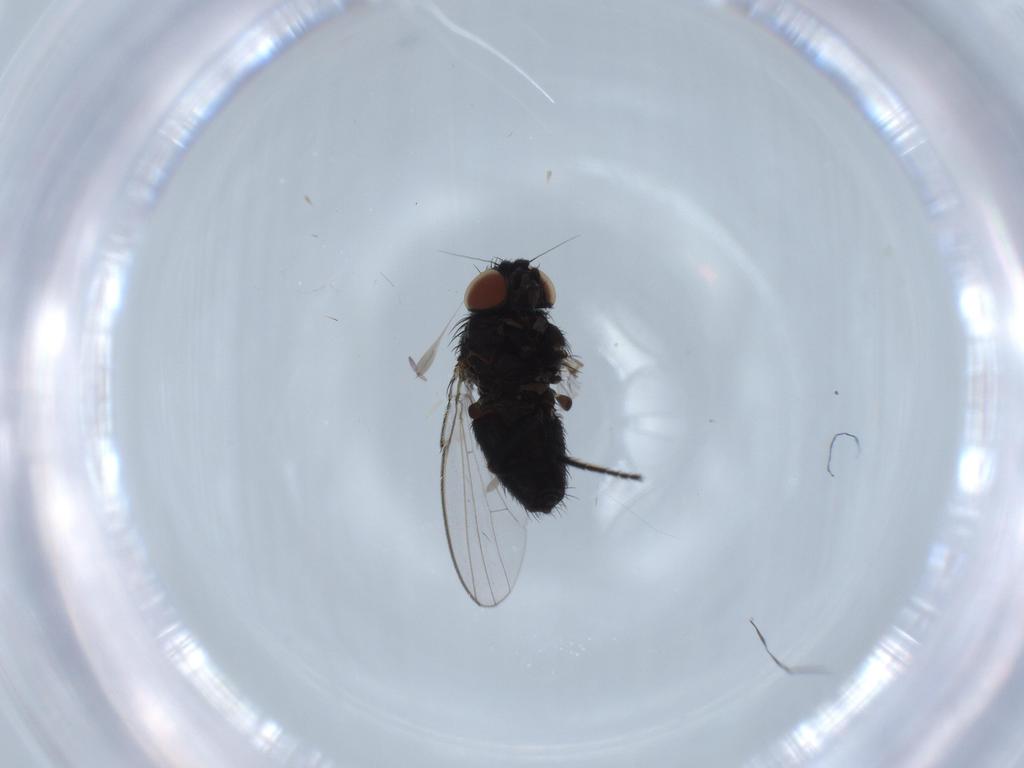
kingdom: Animalia
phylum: Arthropoda
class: Insecta
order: Diptera
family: Milichiidae
